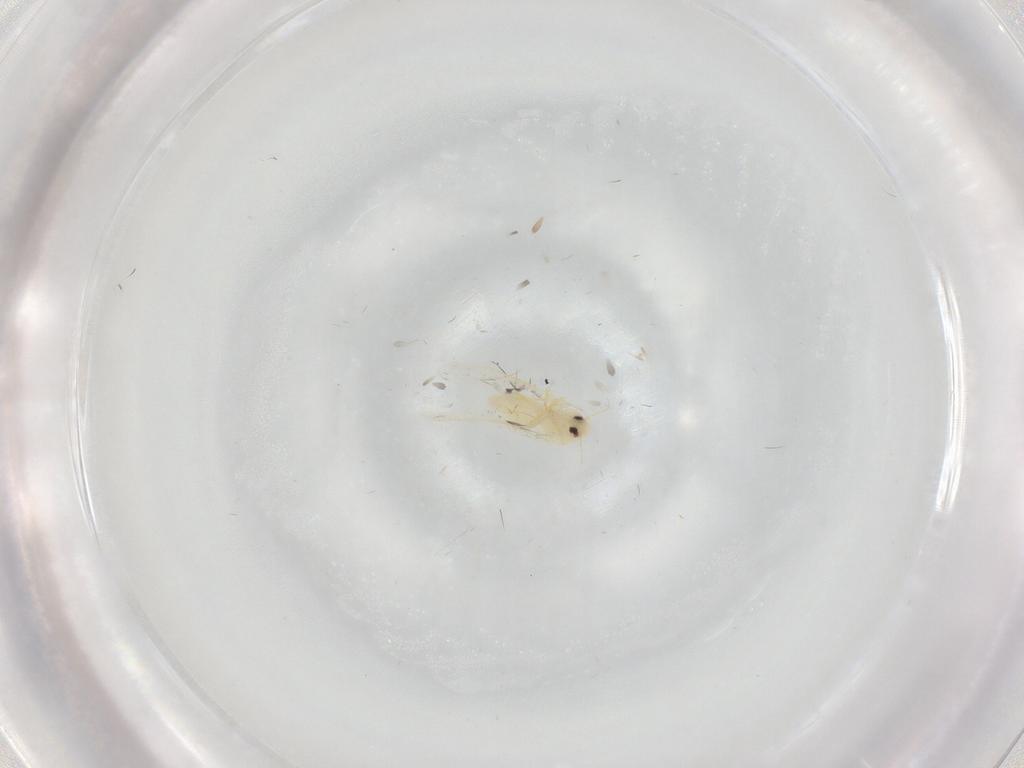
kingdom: Animalia
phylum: Arthropoda
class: Insecta
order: Hemiptera
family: Aleyrodidae
